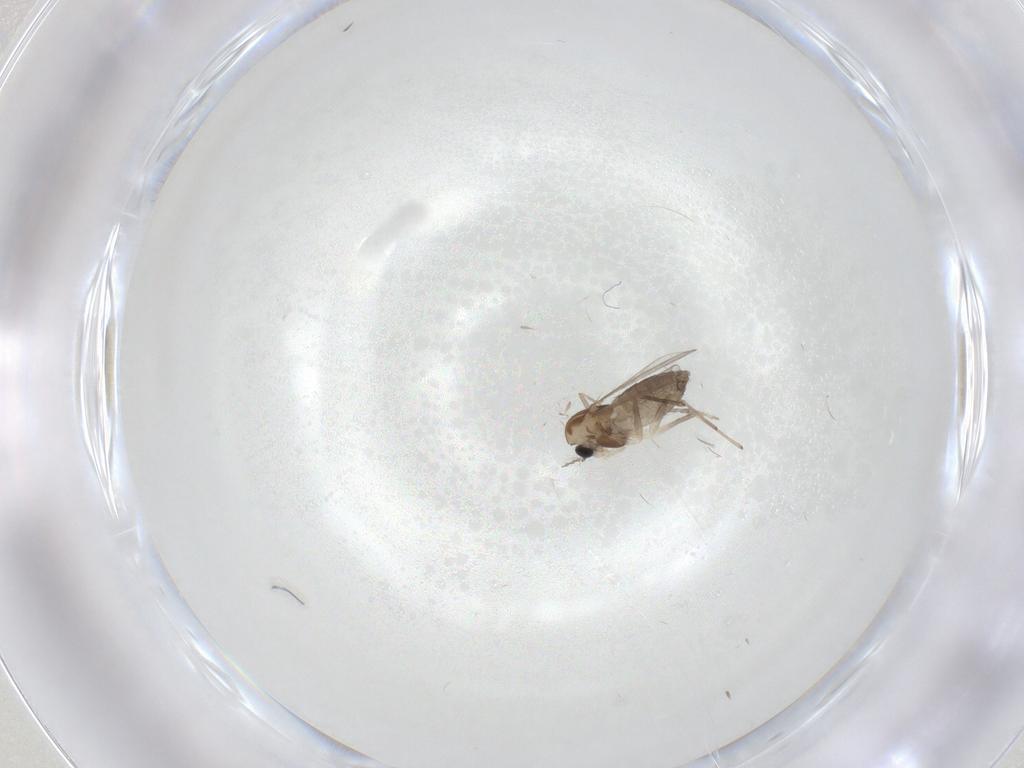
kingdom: Animalia
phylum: Arthropoda
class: Insecta
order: Diptera
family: Chironomidae
